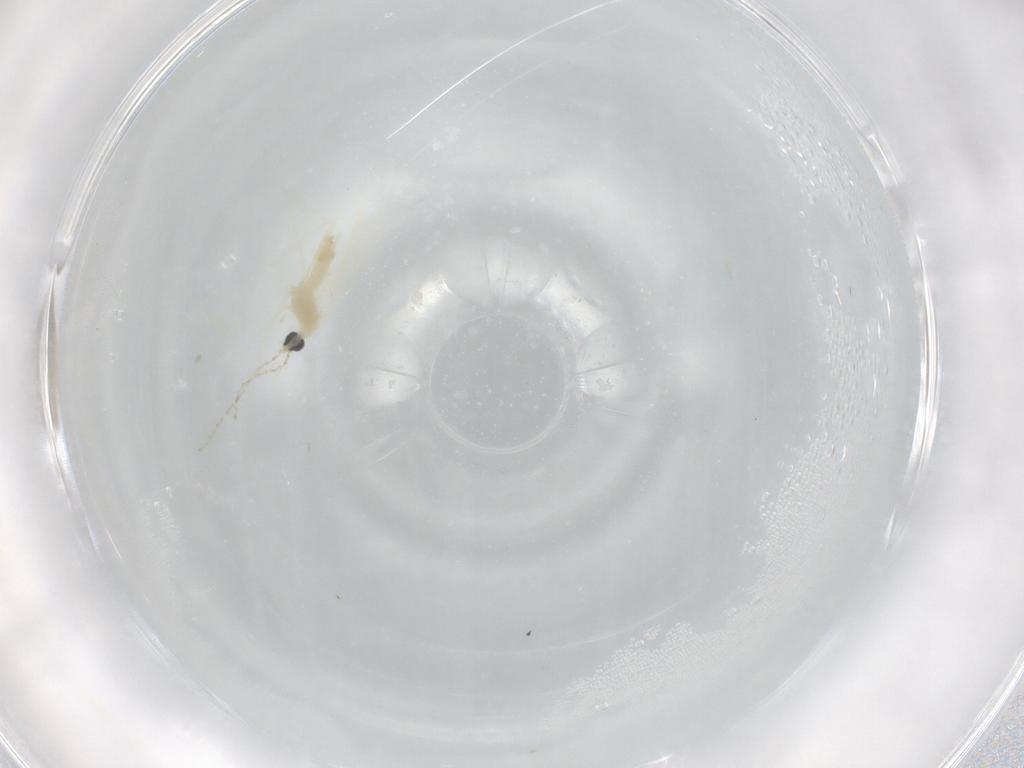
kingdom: Animalia
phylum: Arthropoda
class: Insecta
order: Diptera
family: Cecidomyiidae
